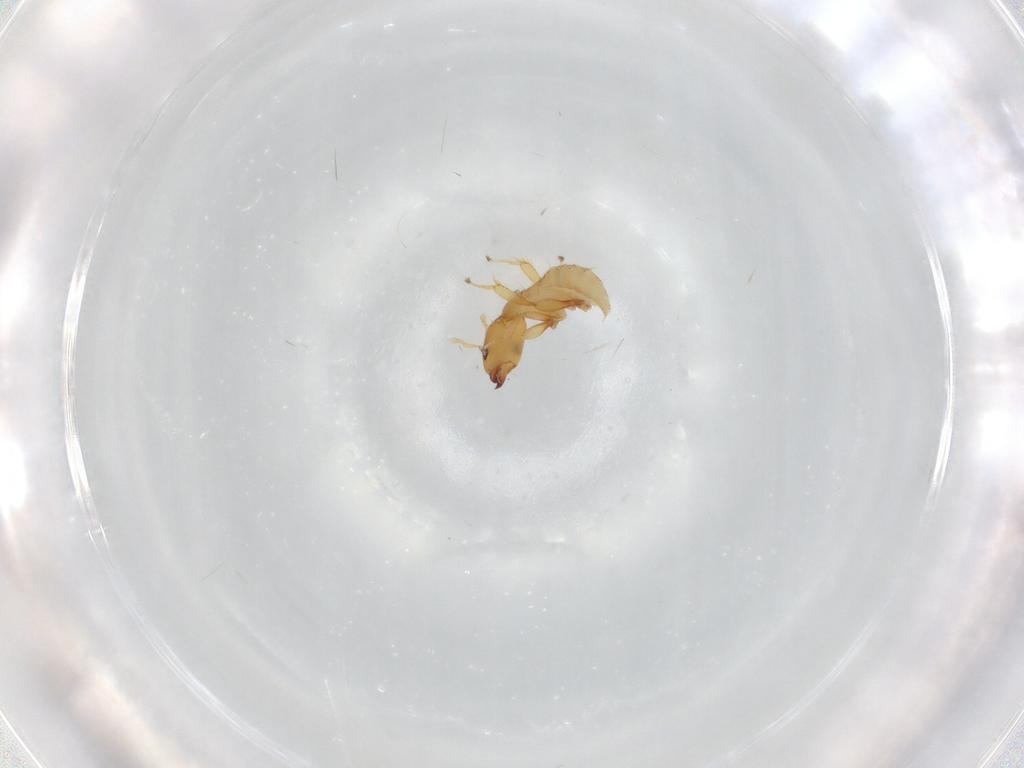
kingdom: Animalia
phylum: Arthropoda
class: Insecta
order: Hymenoptera
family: Pteromalidae
